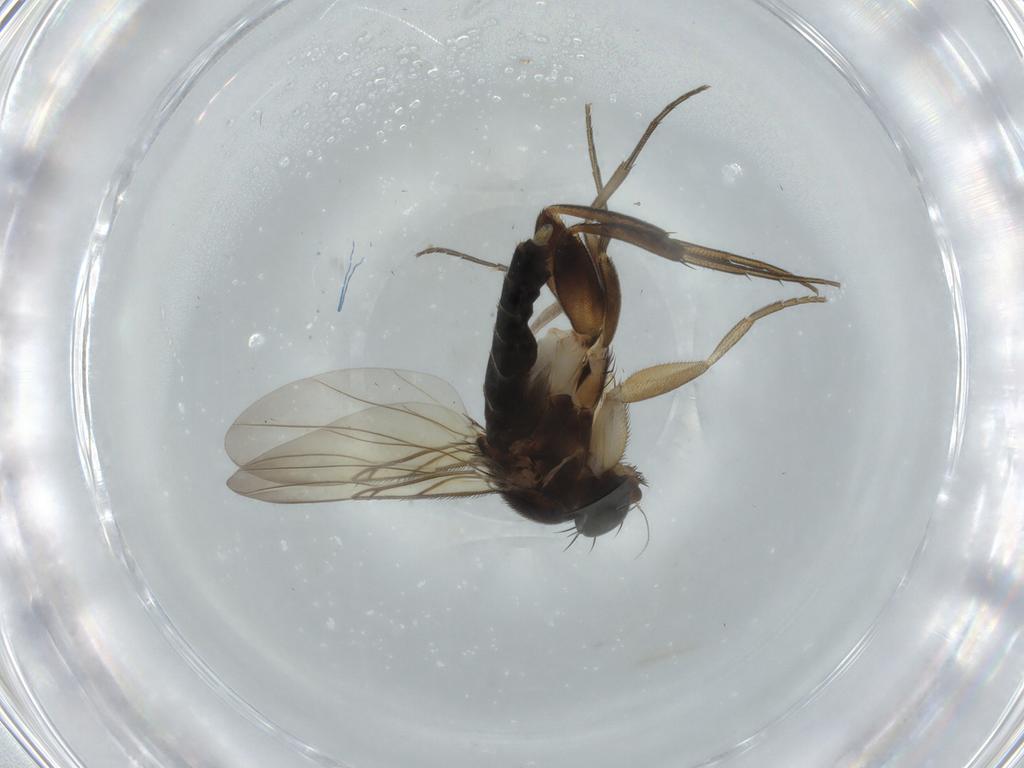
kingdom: Animalia
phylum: Arthropoda
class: Insecta
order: Diptera
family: Phoridae
